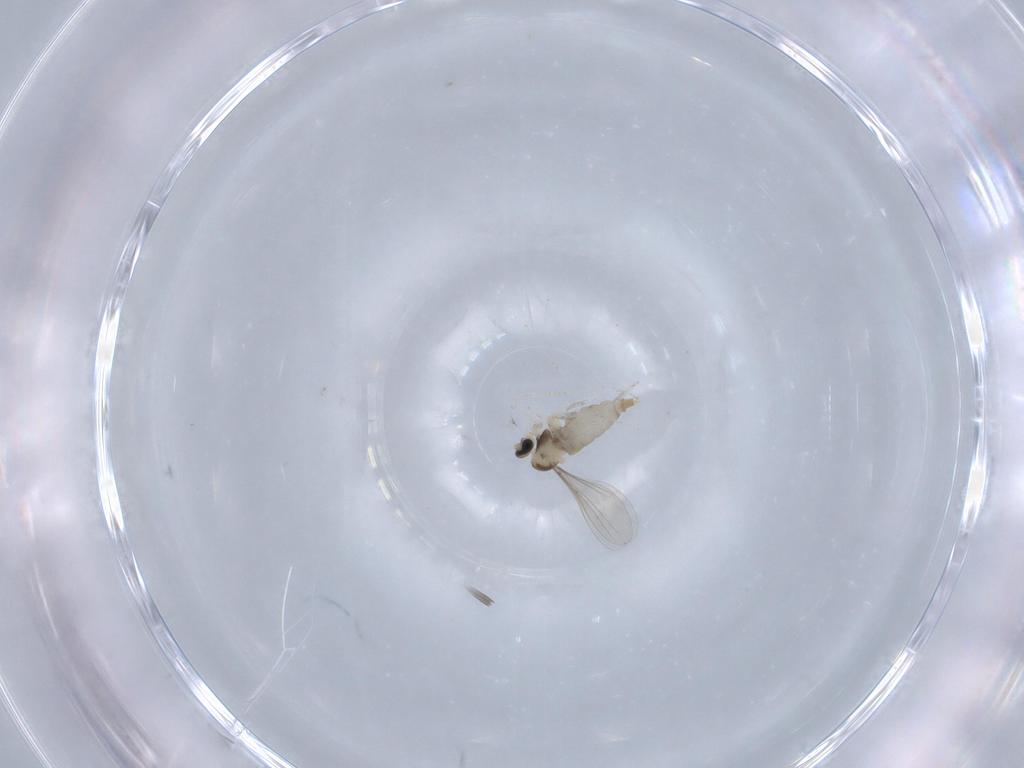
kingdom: Animalia
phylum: Arthropoda
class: Insecta
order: Diptera
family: Cecidomyiidae
